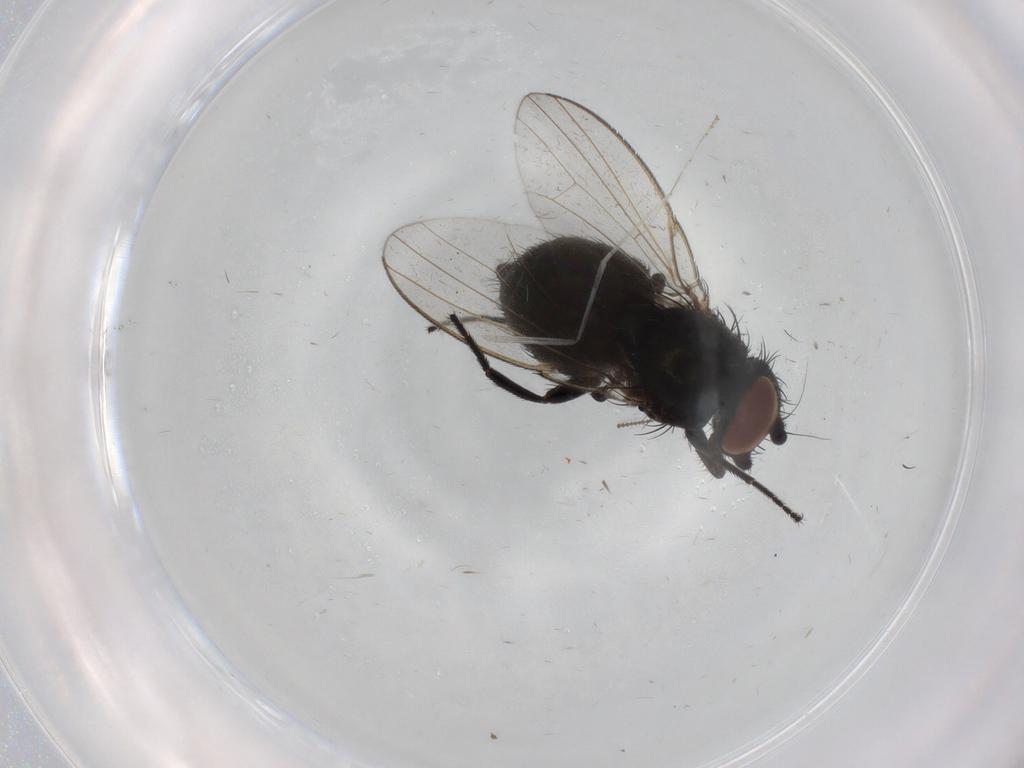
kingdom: Animalia
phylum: Arthropoda
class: Insecta
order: Diptera
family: Milichiidae
